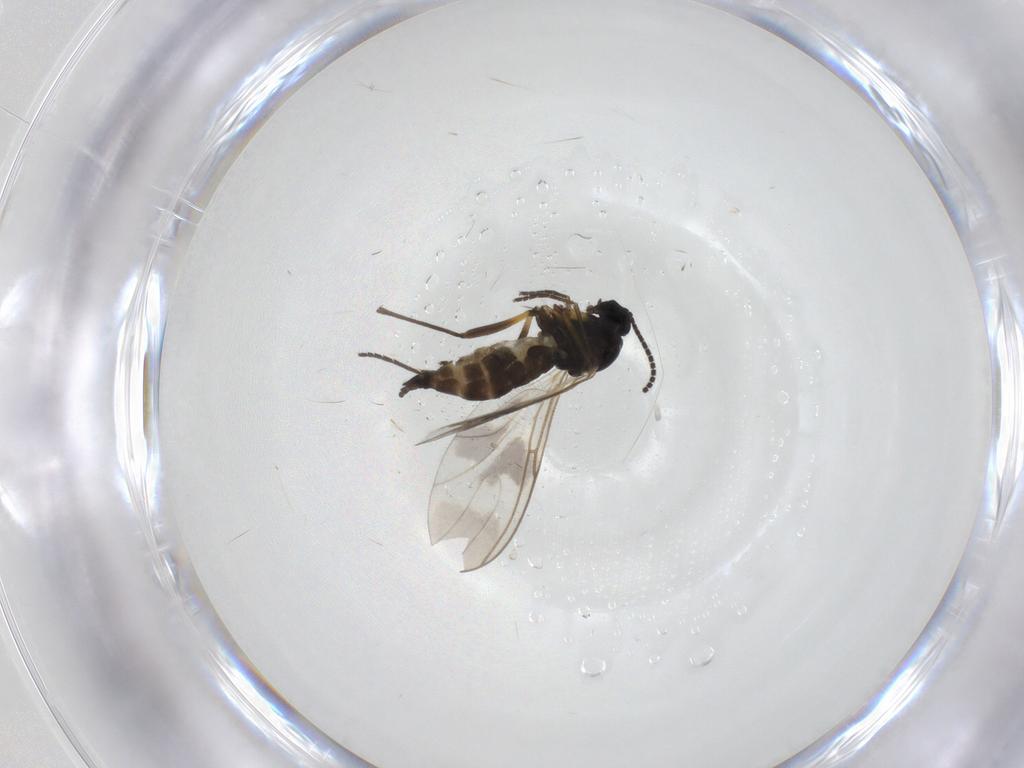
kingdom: Animalia
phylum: Arthropoda
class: Insecta
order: Diptera
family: Sciaridae
